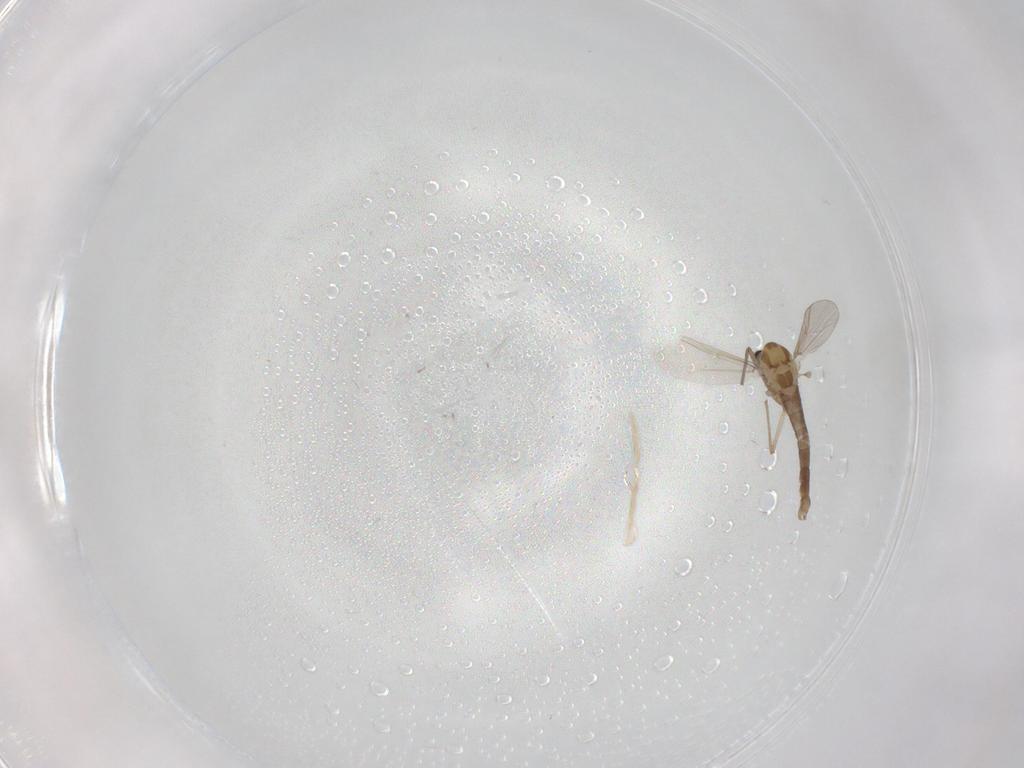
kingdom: Animalia
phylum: Arthropoda
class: Insecta
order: Diptera
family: Chironomidae
